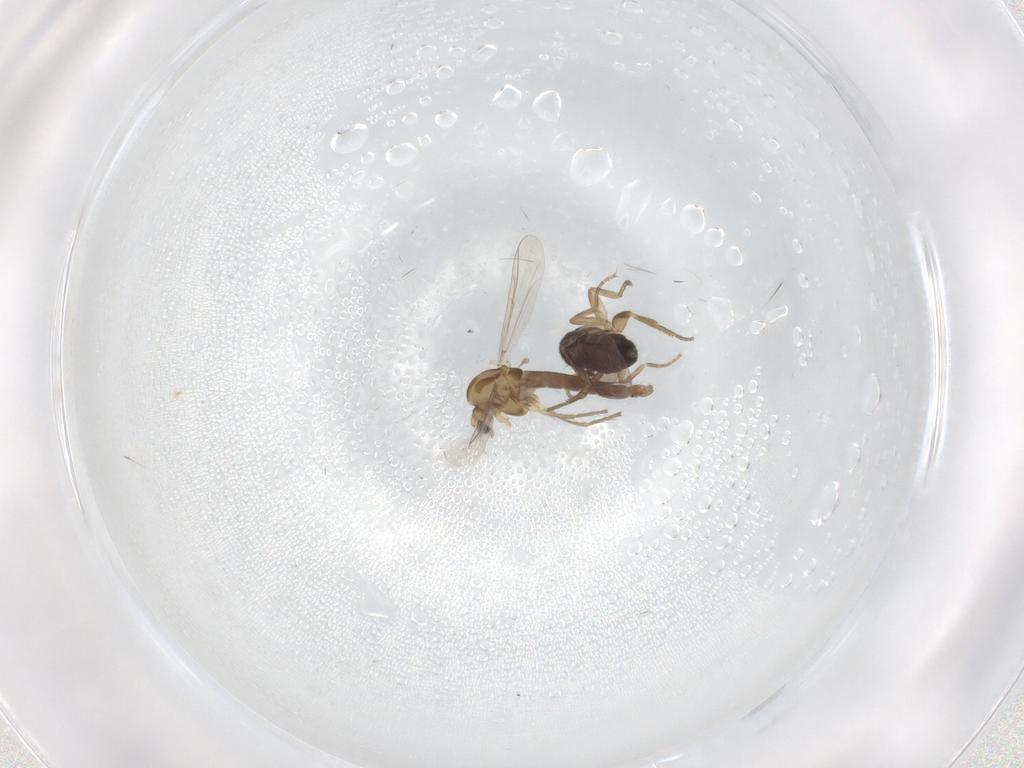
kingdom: Animalia
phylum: Arthropoda
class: Insecta
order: Diptera
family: Chironomidae
